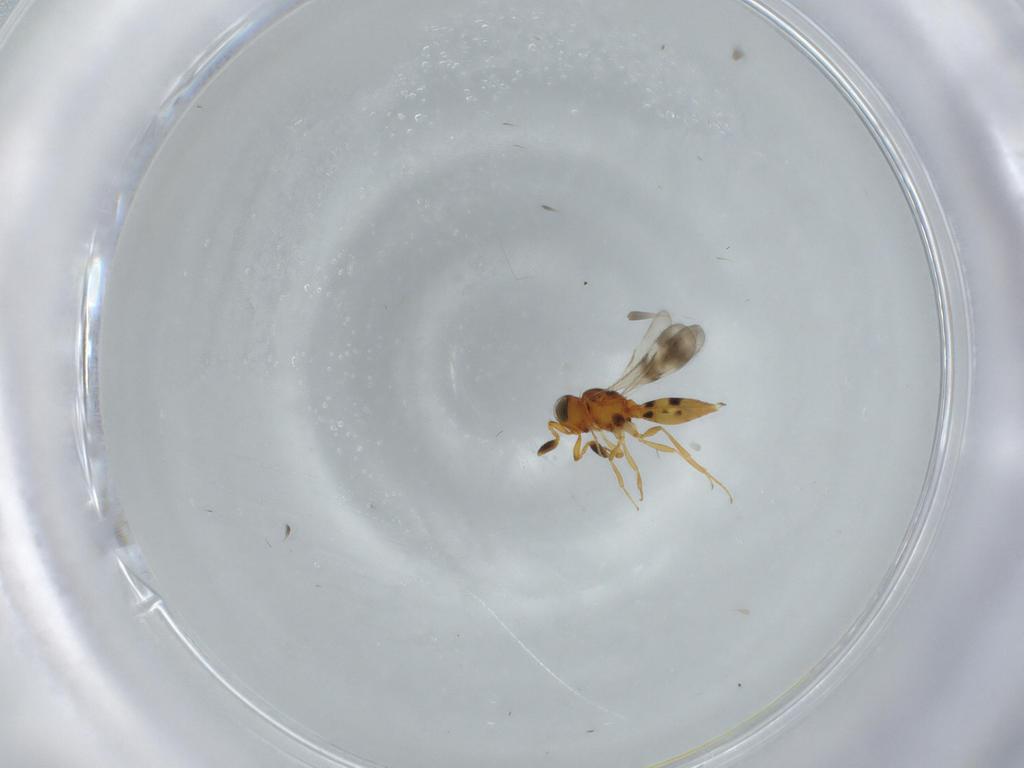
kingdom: Animalia
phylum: Arthropoda
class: Insecta
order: Hymenoptera
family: Scelionidae
